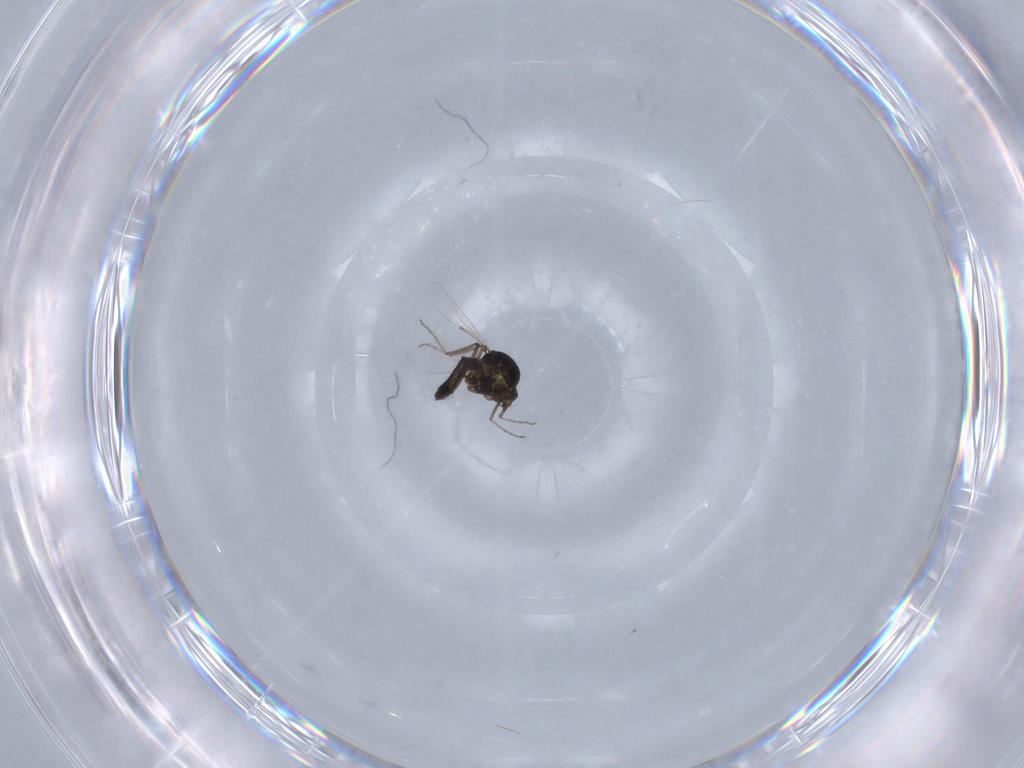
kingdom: Animalia
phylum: Arthropoda
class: Insecta
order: Diptera
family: Ceratopogonidae
